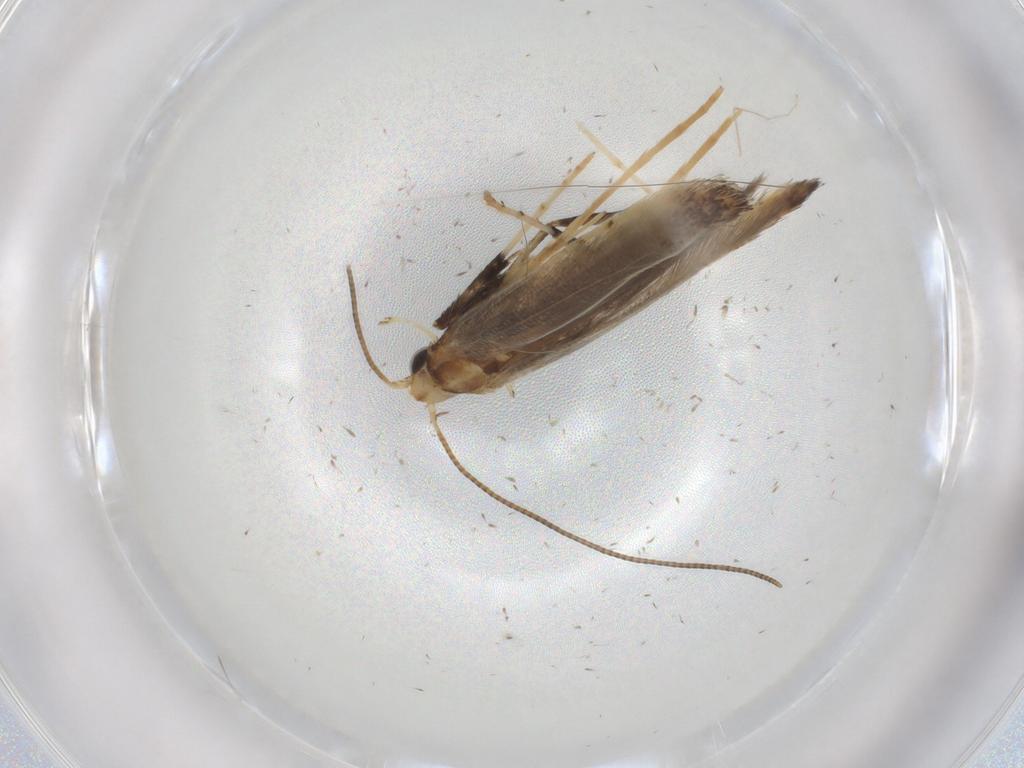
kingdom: Animalia
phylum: Arthropoda
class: Insecta
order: Lepidoptera
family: Gracillariidae
